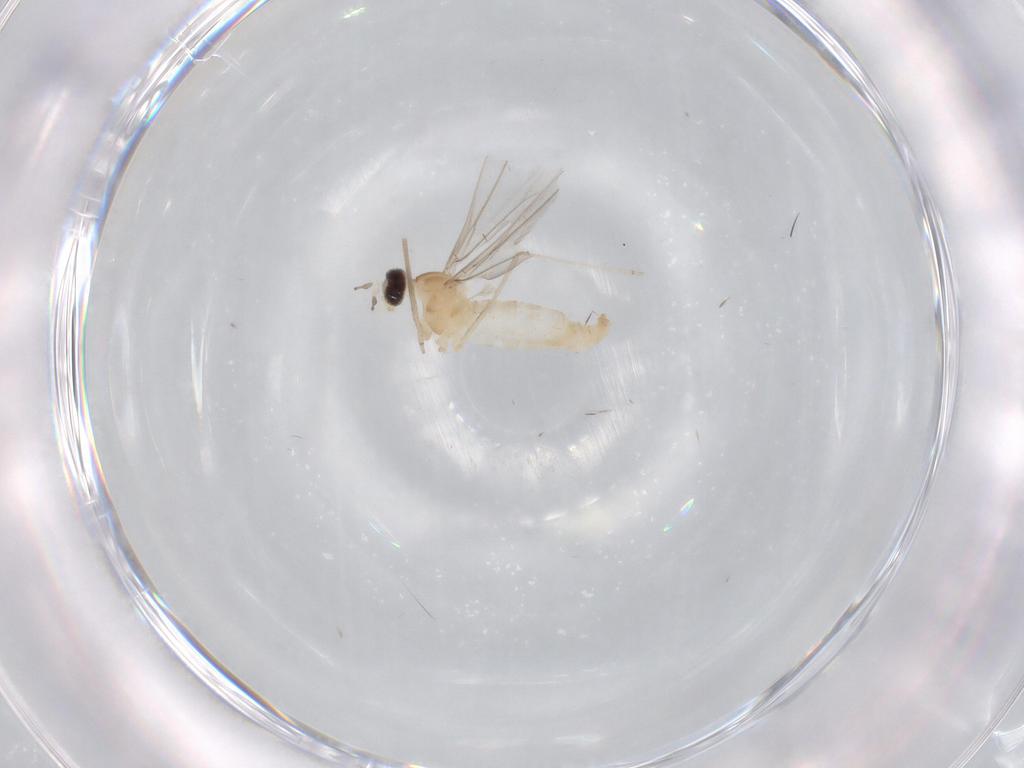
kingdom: Animalia
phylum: Arthropoda
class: Insecta
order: Diptera
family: Cecidomyiidae
